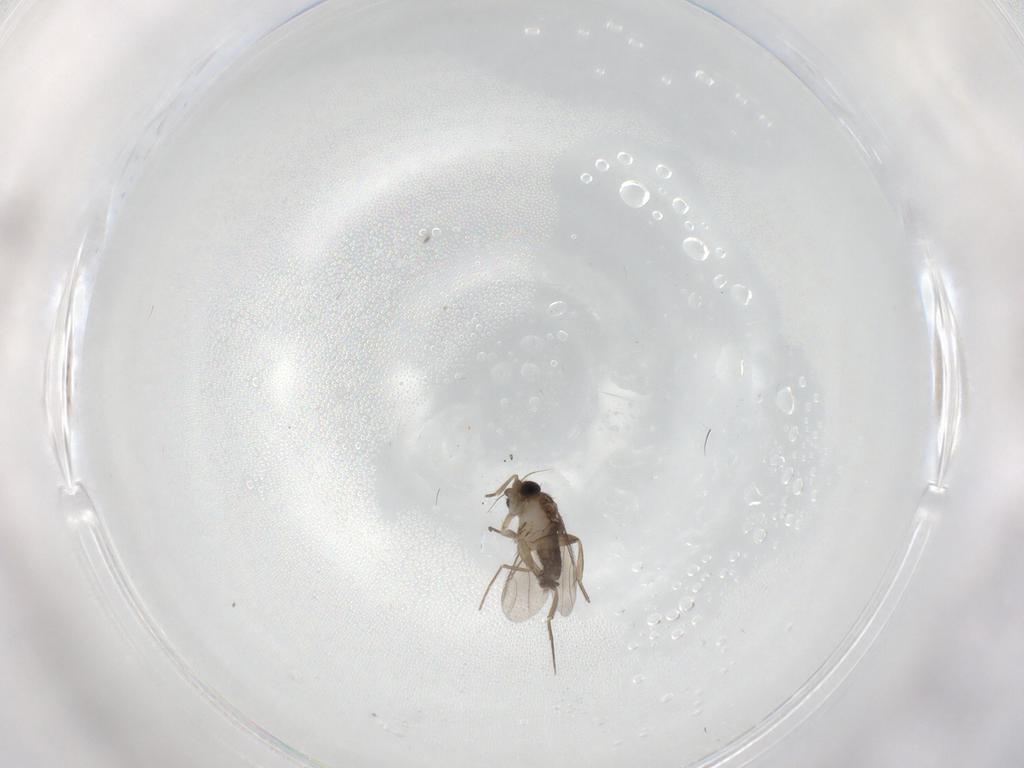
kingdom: Animalia
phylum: Arthropoda
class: Insecta
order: Diptera
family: Phoridae
